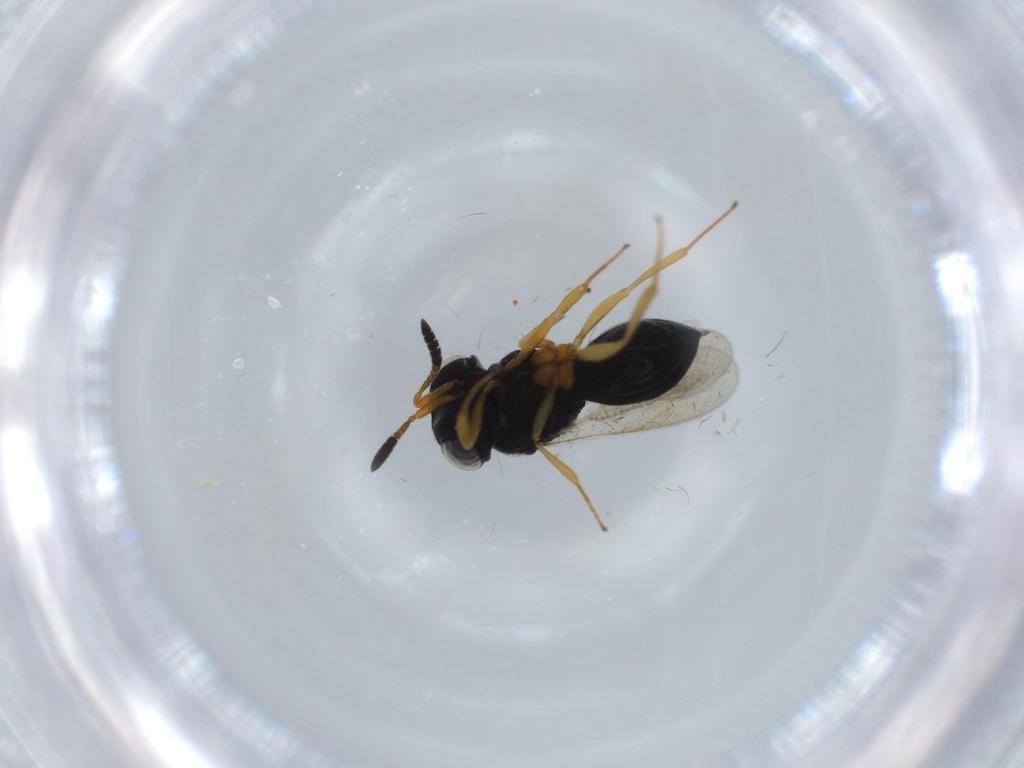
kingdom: Animalia
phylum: Arthropoda
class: Insecta
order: Hymenoptera
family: Scelionidae
